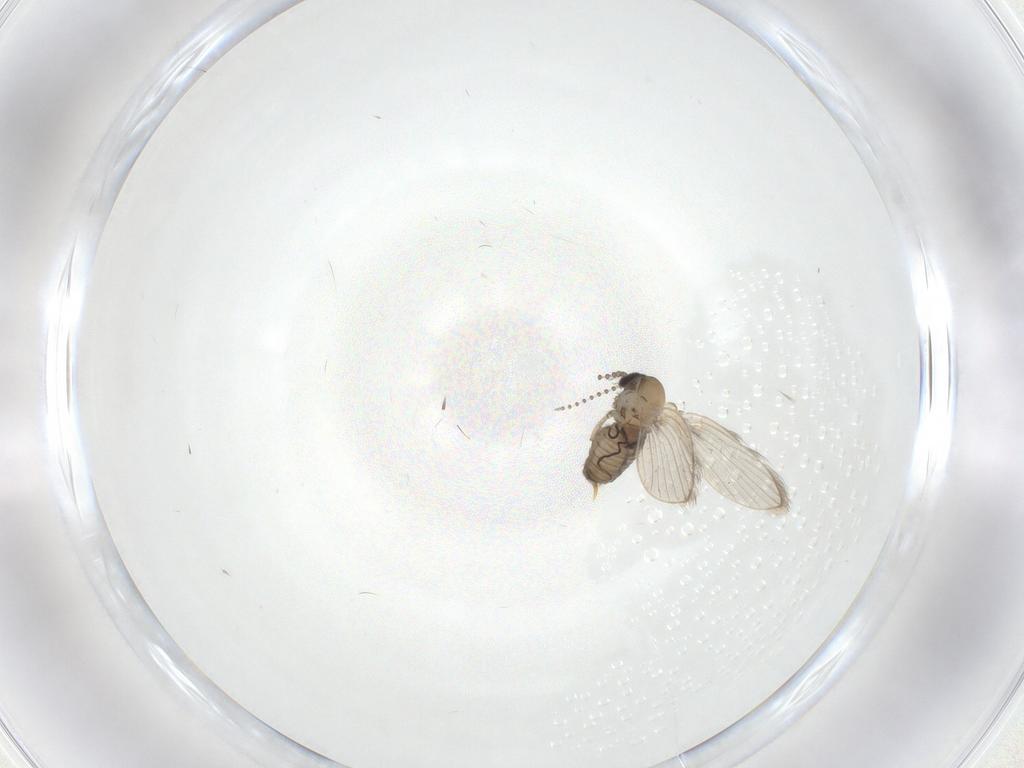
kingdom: Animalia
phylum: Arthropoda
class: Insecta
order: Diptera
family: Psychodidae
